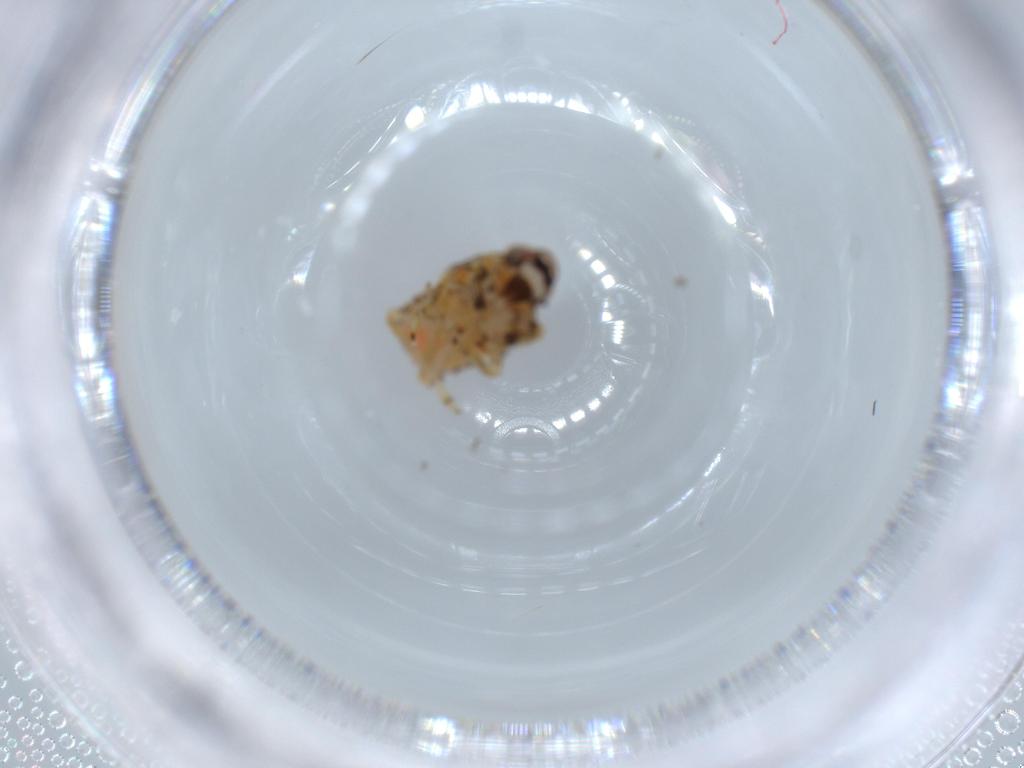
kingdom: Animalia
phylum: Arthropoda
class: Insecta
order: Hemiptera
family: Issidae
